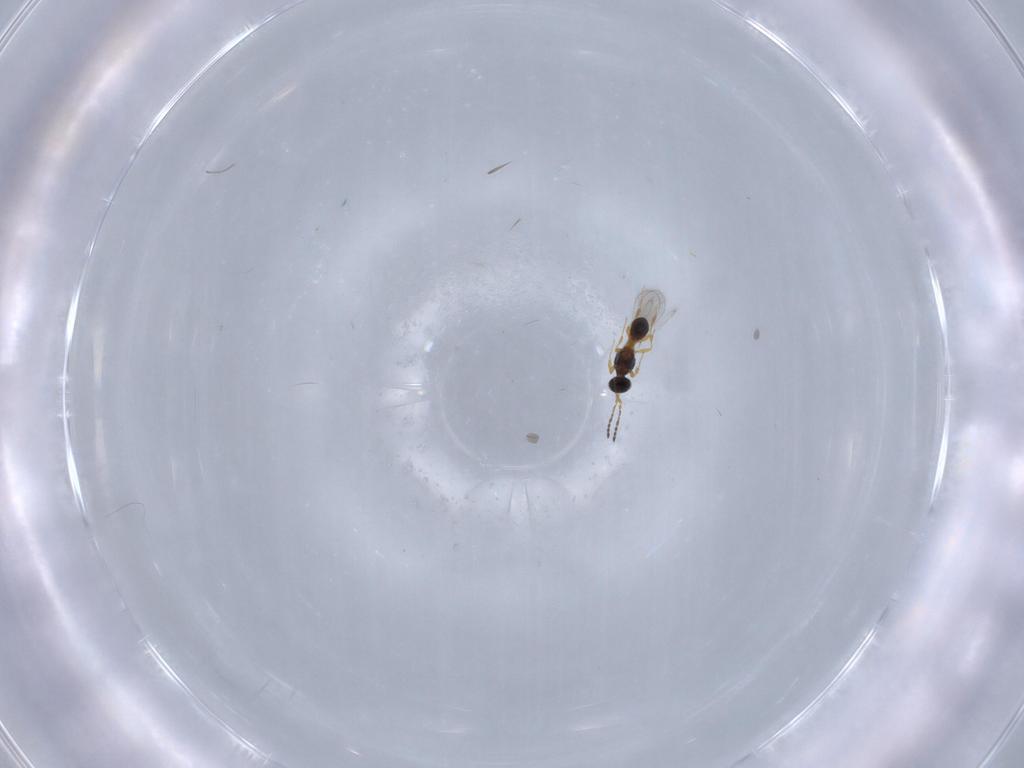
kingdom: Animalia
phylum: Arthropoda
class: Insecta
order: Hymenoptera
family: Platygastridae
